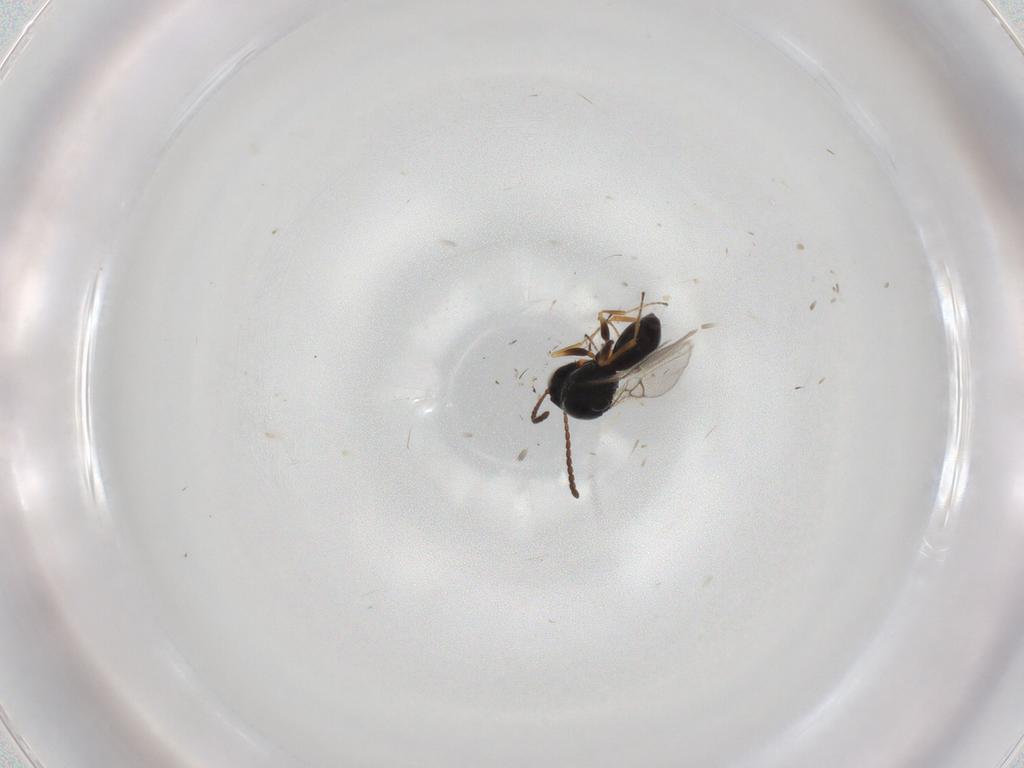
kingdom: Animalia
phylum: Arthropoda
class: Insecta
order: Hymenoptera
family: Figitidae
